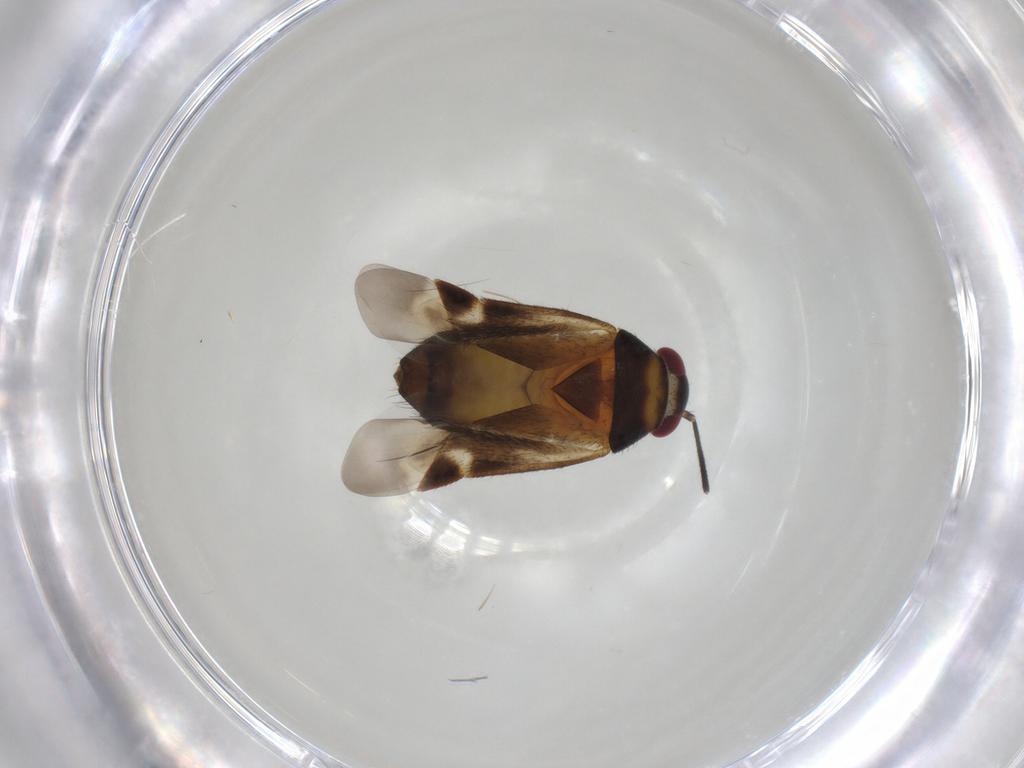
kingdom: Animalia
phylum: Arthropoda
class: Insecta
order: Hemiptera
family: Miridae
